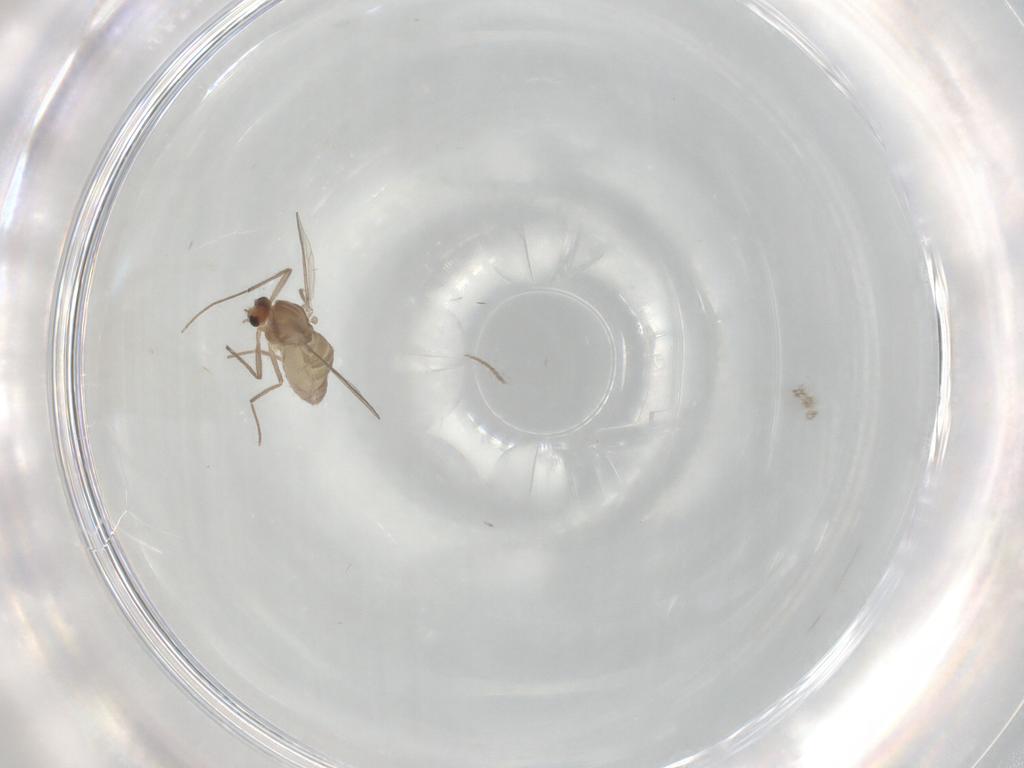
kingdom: Animalia
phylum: Arthropoda
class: Insecta
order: Diptera
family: Chironomidae
